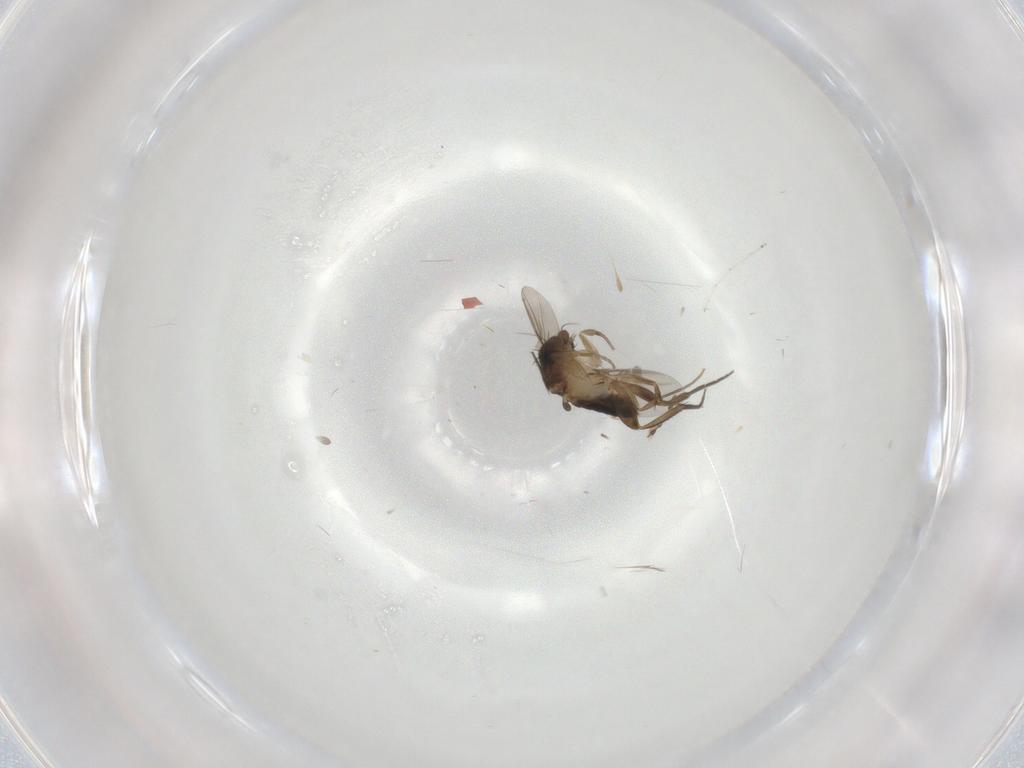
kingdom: Animalia
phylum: Arthropoda
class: Insecta
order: Diptera
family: Phoridae
